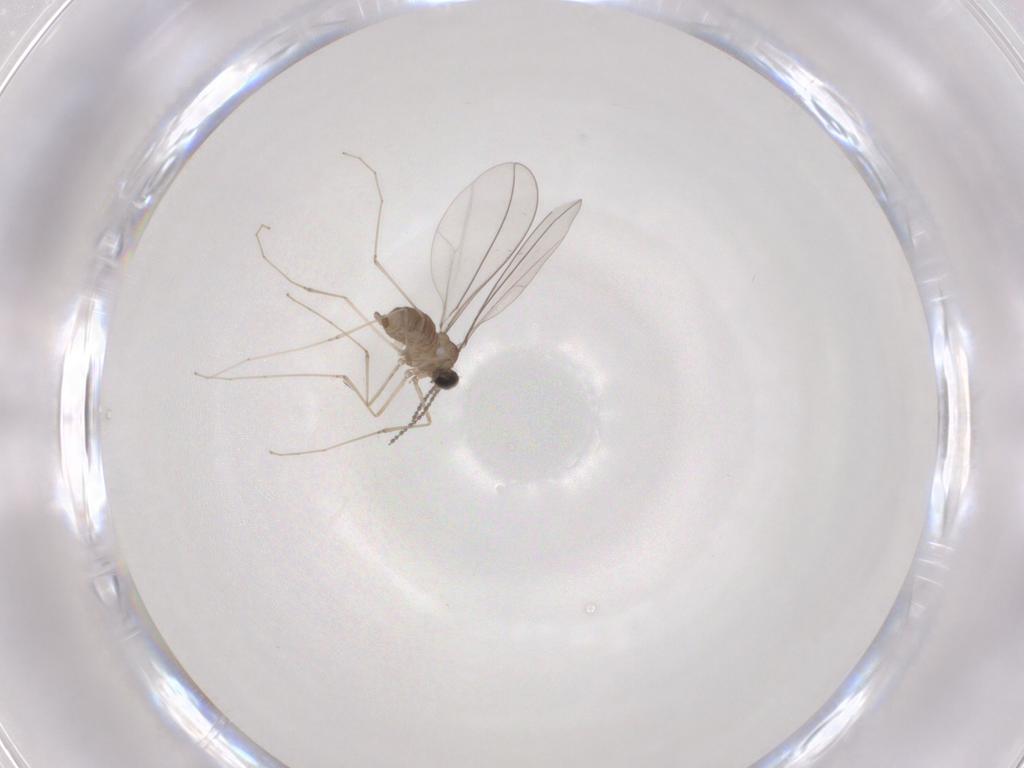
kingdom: Animalia
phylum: Arthropoda
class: Insecta
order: Diptera
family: Cecidomyiidae
